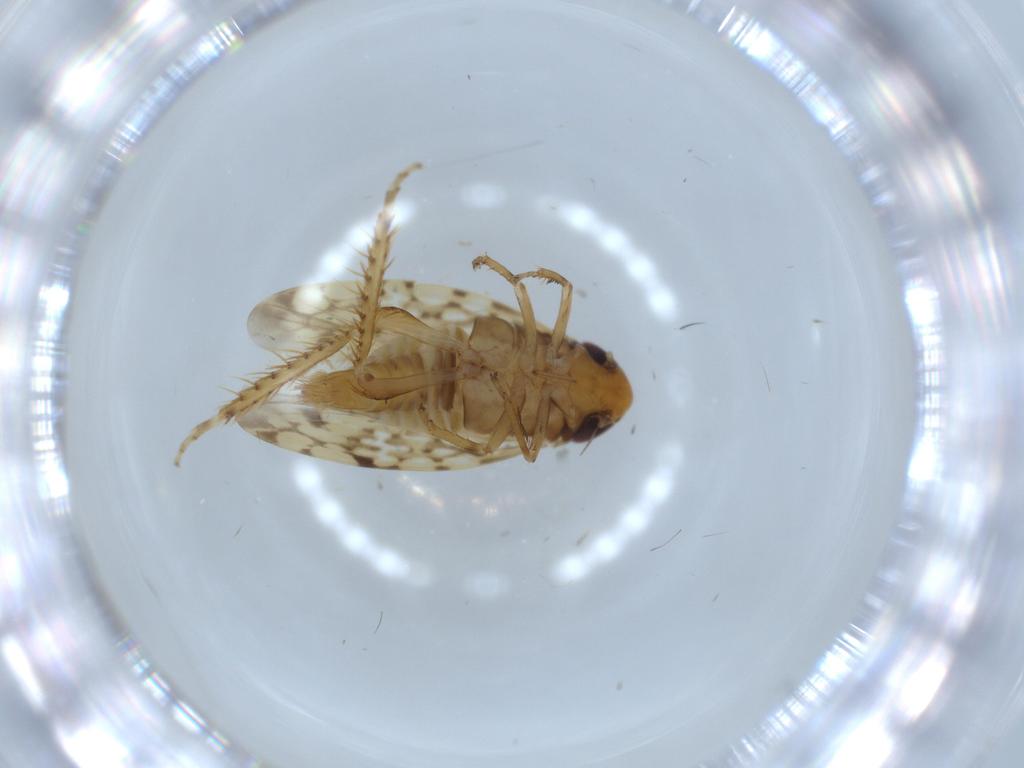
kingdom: Animalia
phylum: Arthropoda
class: Insecta
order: Hemiptera
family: Cicadellidae
